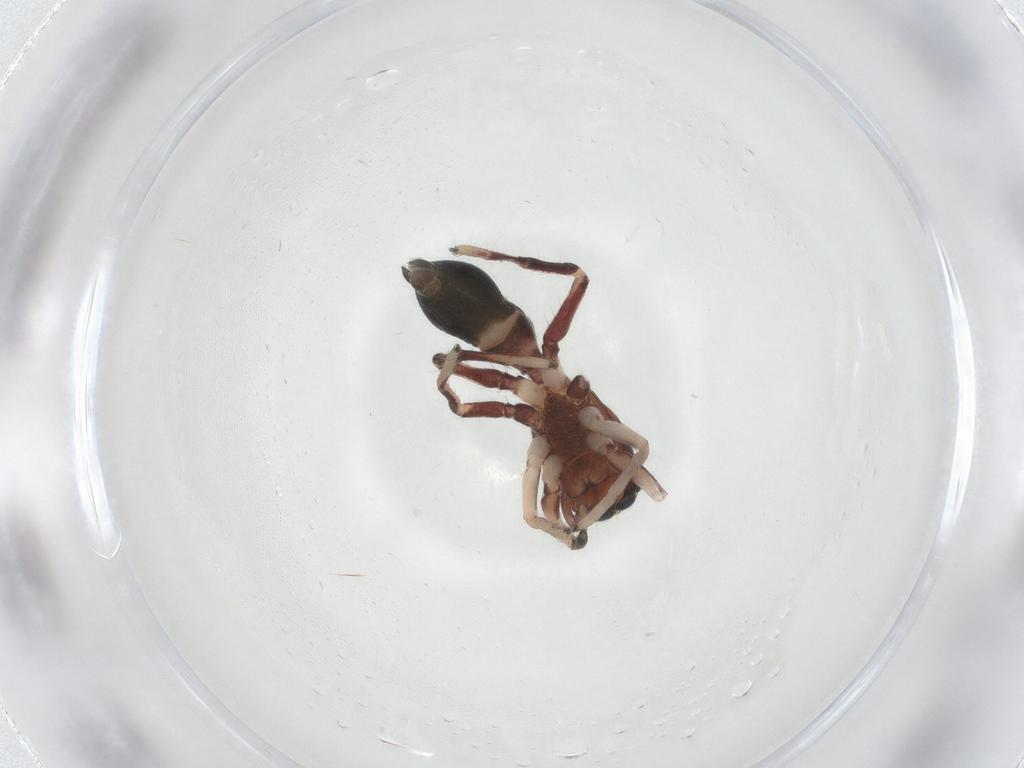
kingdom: Animalia
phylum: Arthropoda
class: Arachnida
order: Araneae
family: Salticidae
